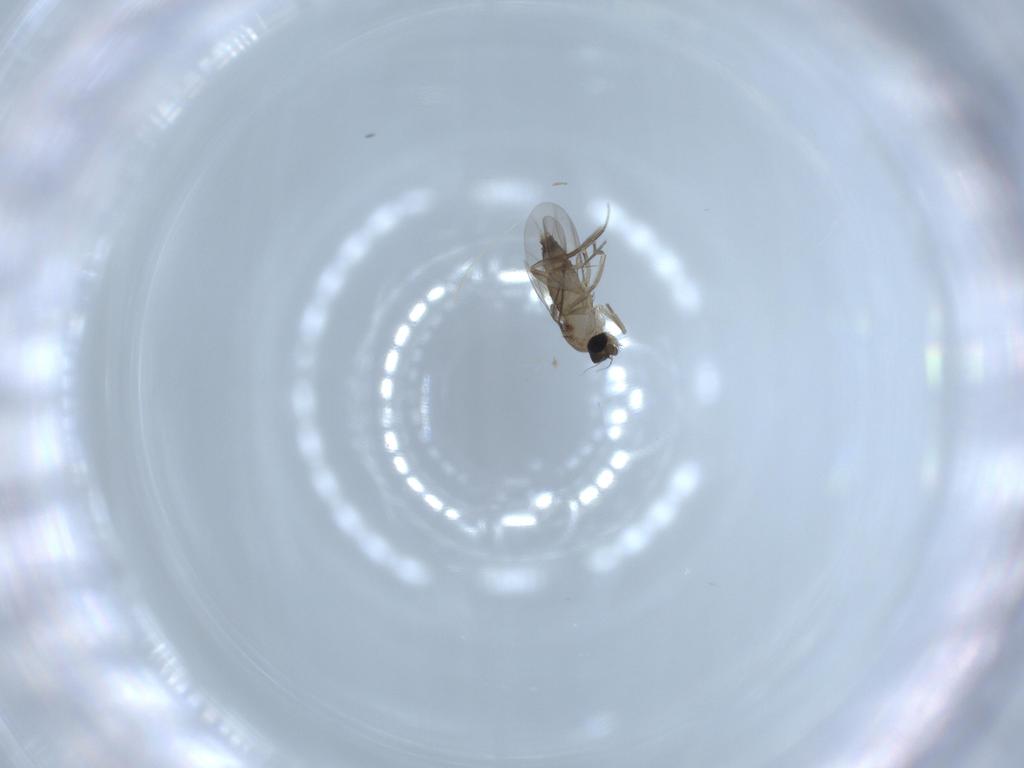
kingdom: Animalia
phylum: Arthropoda
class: Insecta
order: Diptera
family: Phoridae
